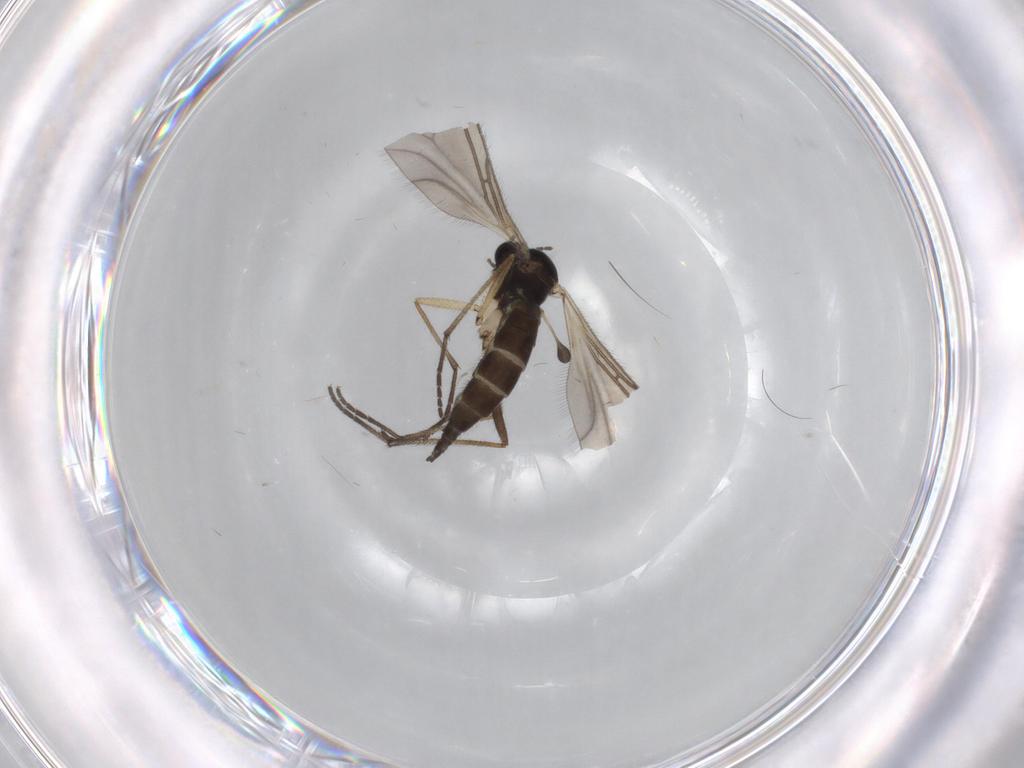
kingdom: Animalia
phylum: Arthropoda
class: Insecta
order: Diptera
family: Sciaridae
